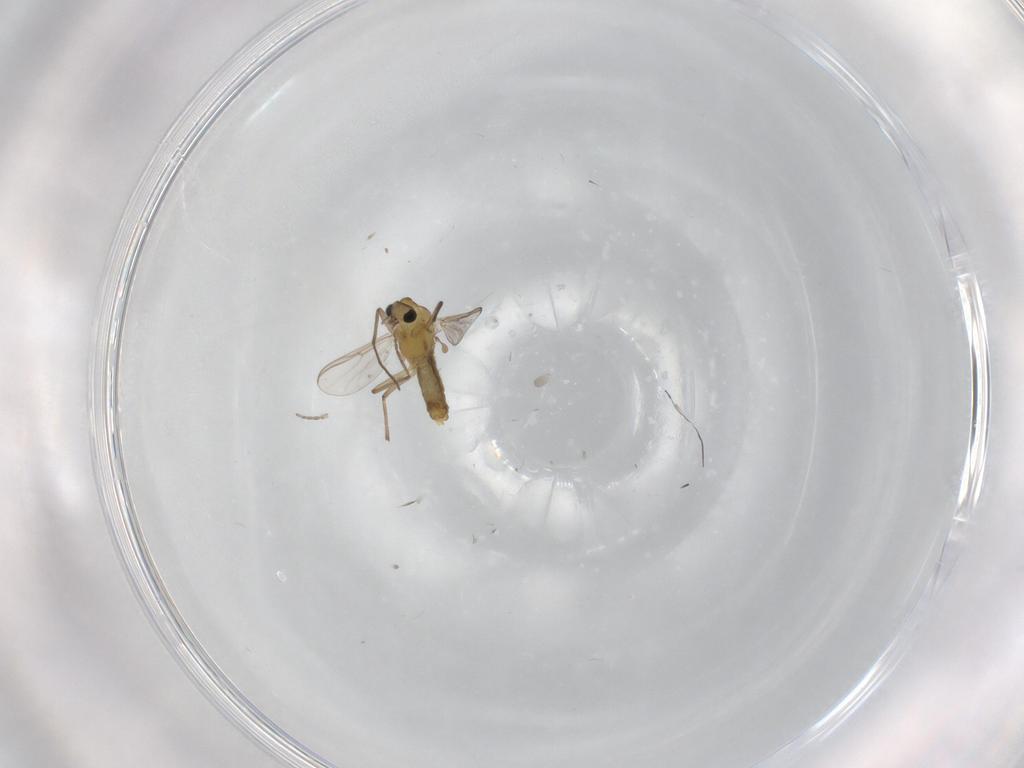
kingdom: Animalia
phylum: Arthropoda
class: Insecta
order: Diptera
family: Chironomidae
